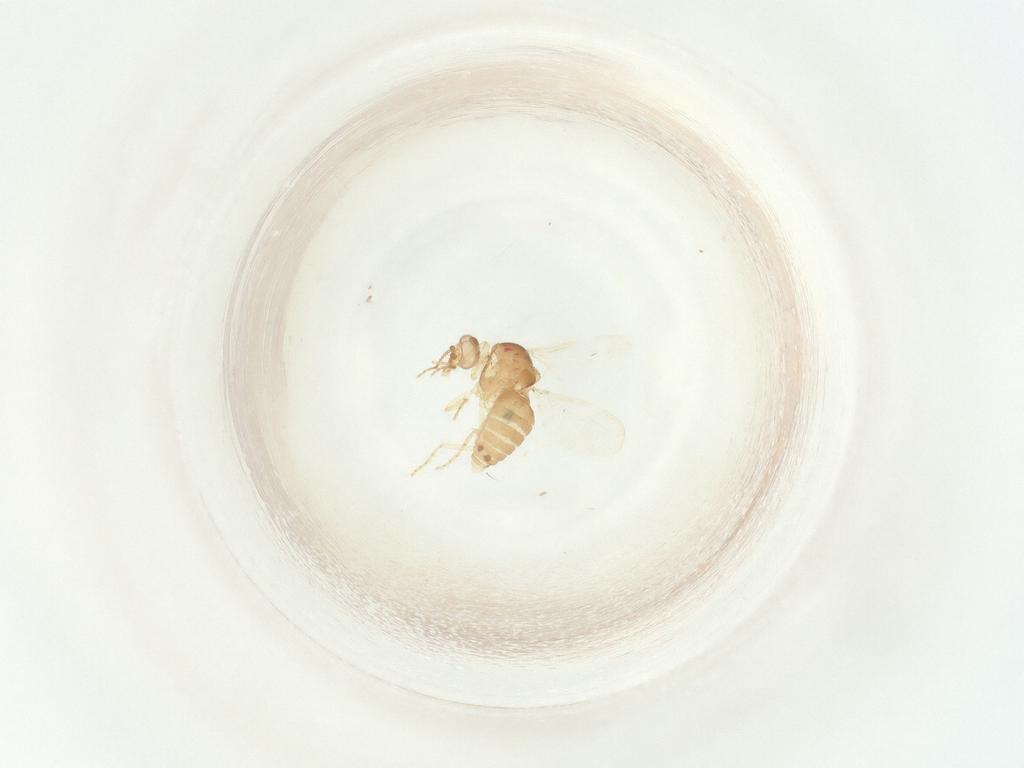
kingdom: Animalia
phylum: Arthropoda
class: Insecta
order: Diptera
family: Ceratopogonidae
